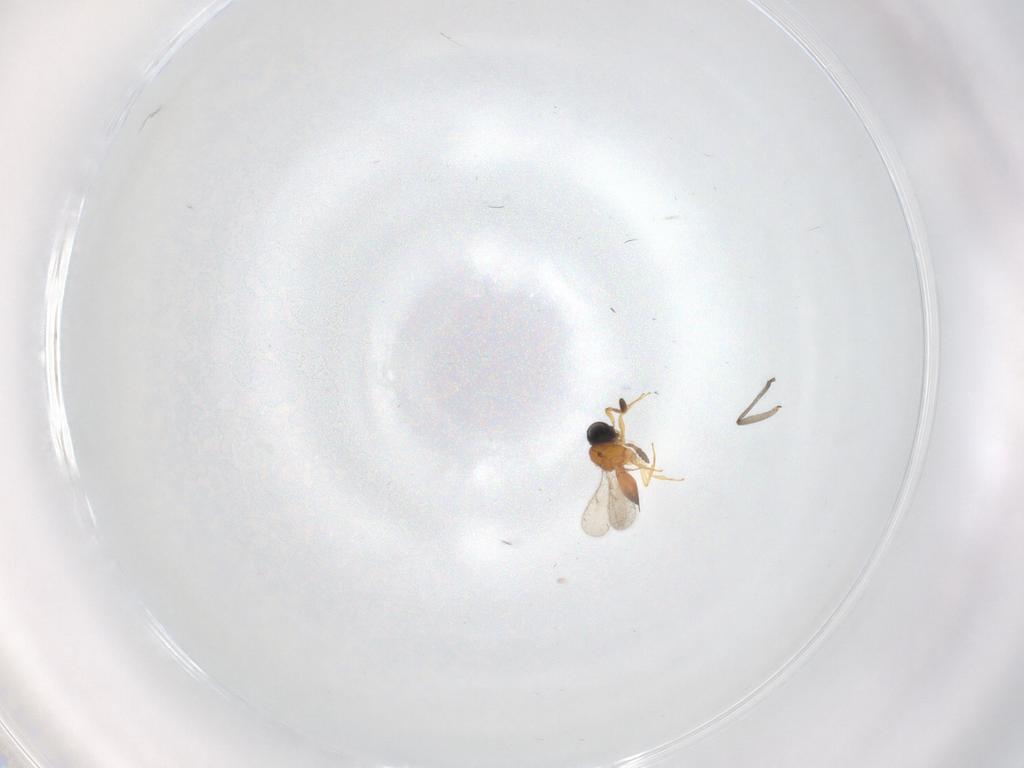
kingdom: Animalia
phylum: Arthropoda
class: Insecta
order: Hymenoptera
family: Scelionidae
